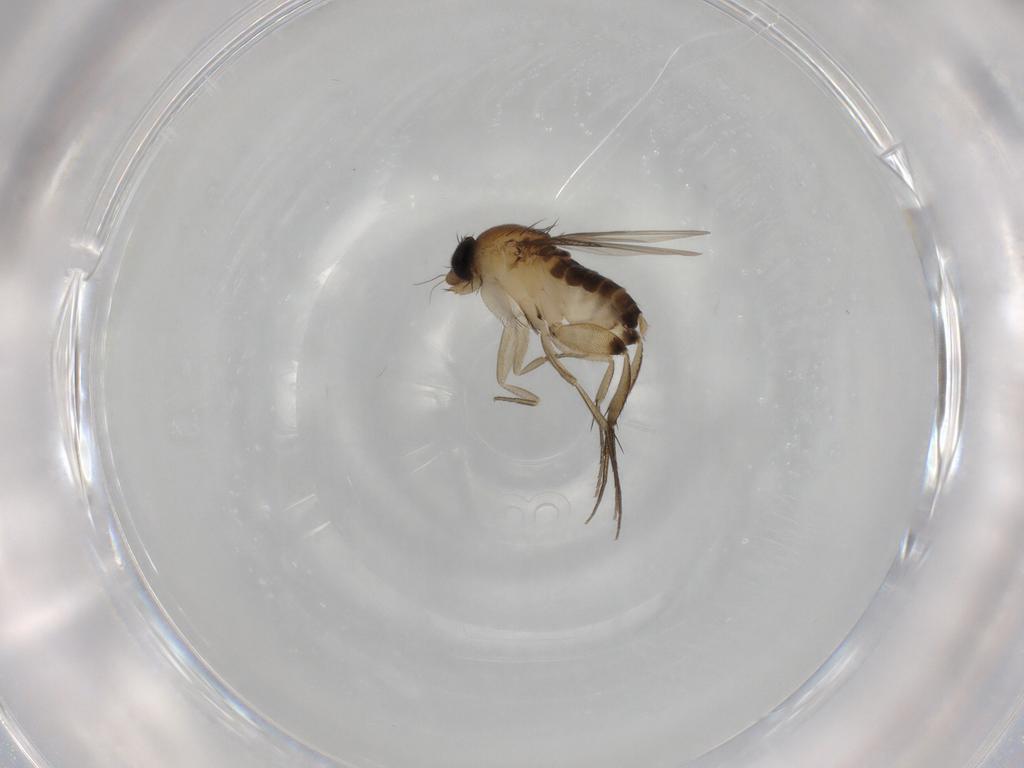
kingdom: Animalia
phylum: Arthropoda
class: Insecta
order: Diptera
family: Phoridae
